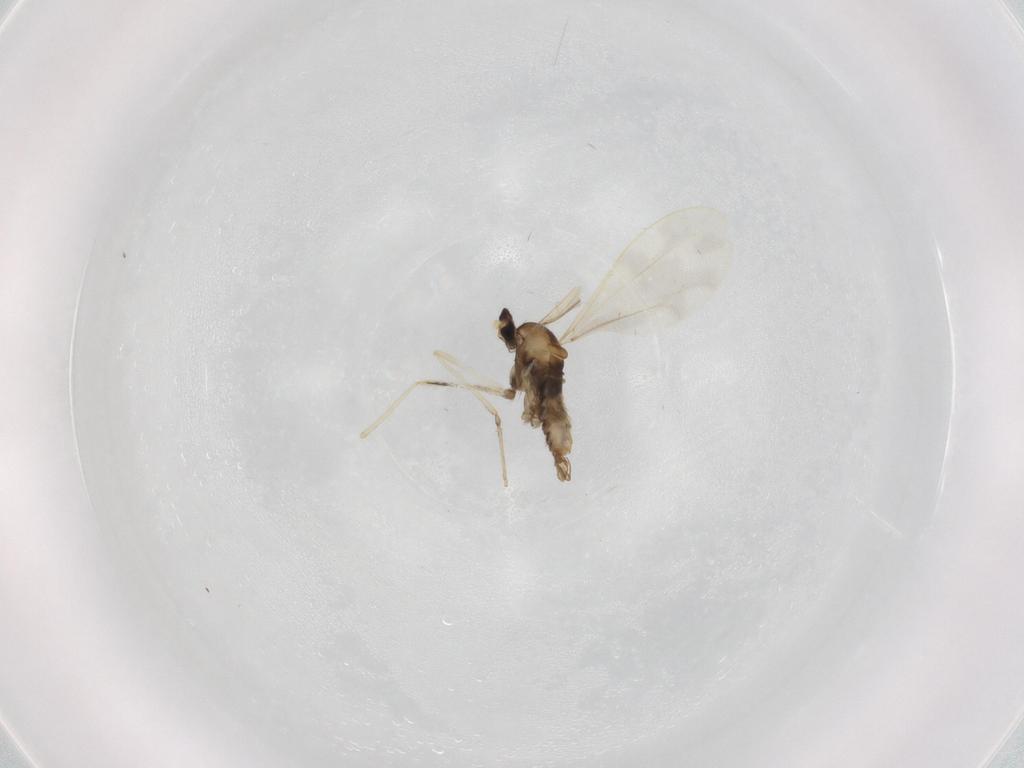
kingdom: Animalia
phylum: Arthropoda
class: Insecta
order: Diptera
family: Cecidomyiidae
